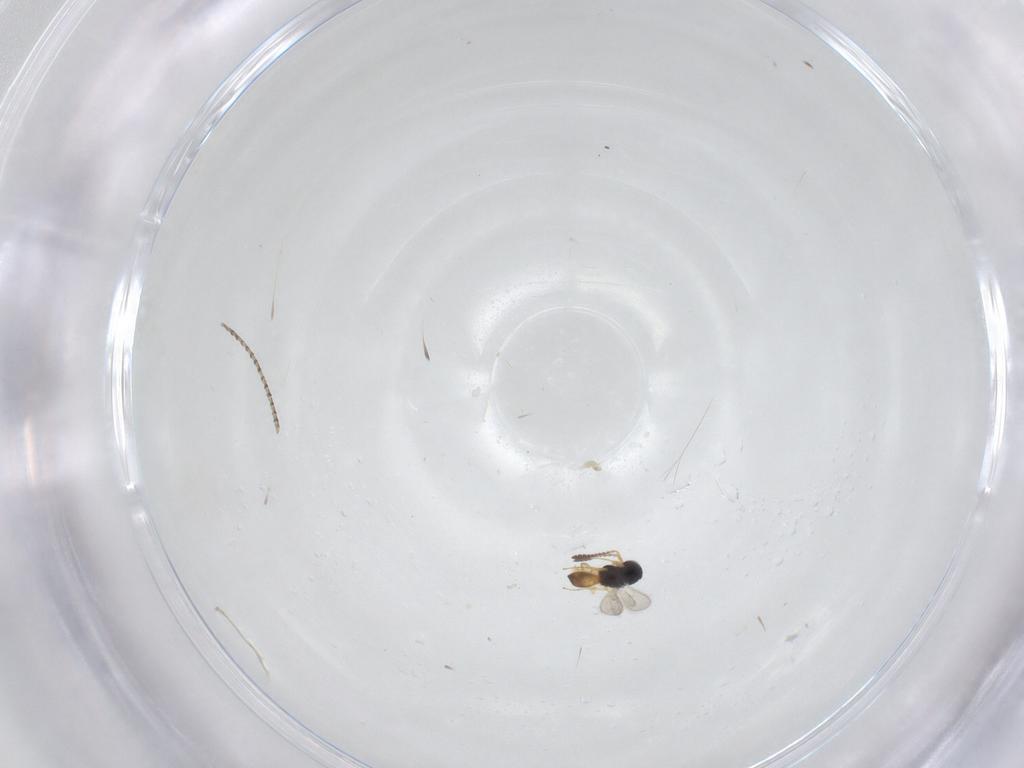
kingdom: Animalia
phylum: Arthropoda
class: Insecta
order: Hymenoptera
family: Scelionidae
